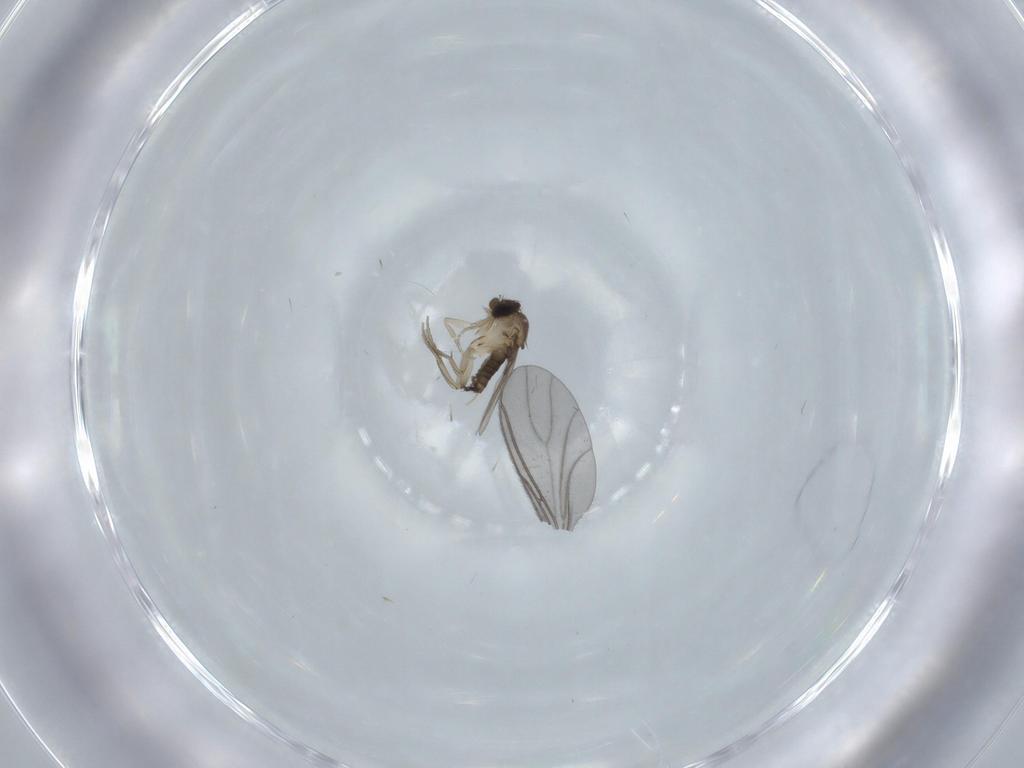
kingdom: Animalia
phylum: Arthropoda
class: Insecta
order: Diptera
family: Phoridae
